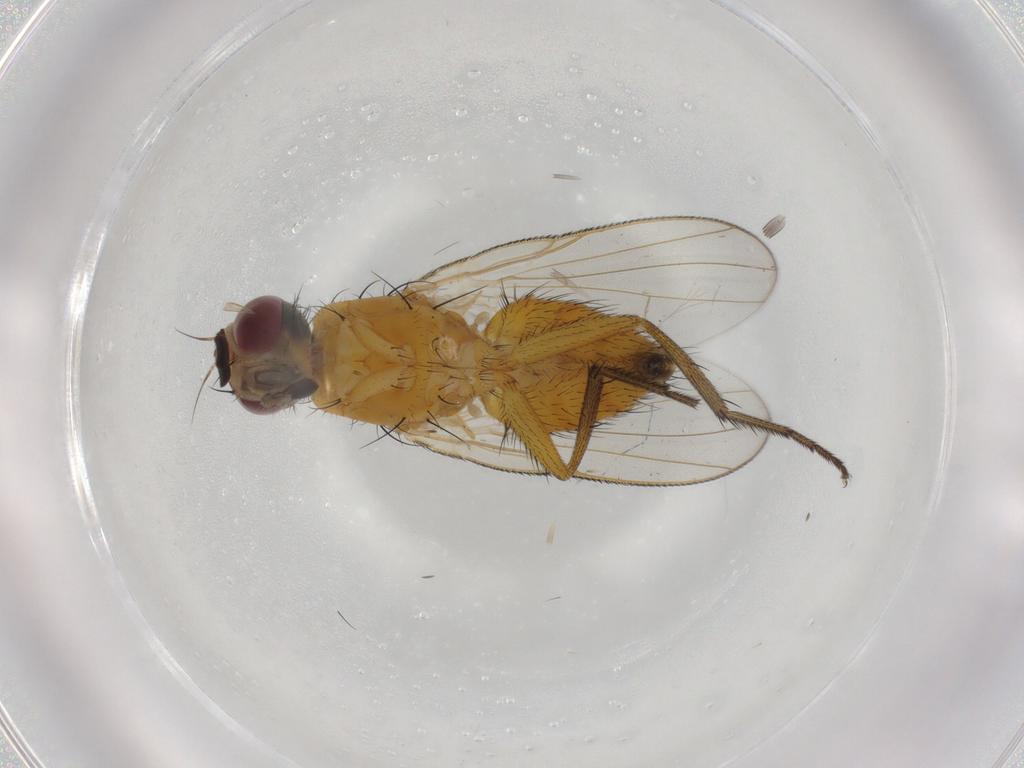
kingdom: Animalia
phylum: Arthropoda
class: Insecta
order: Diptera
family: Muscidae
